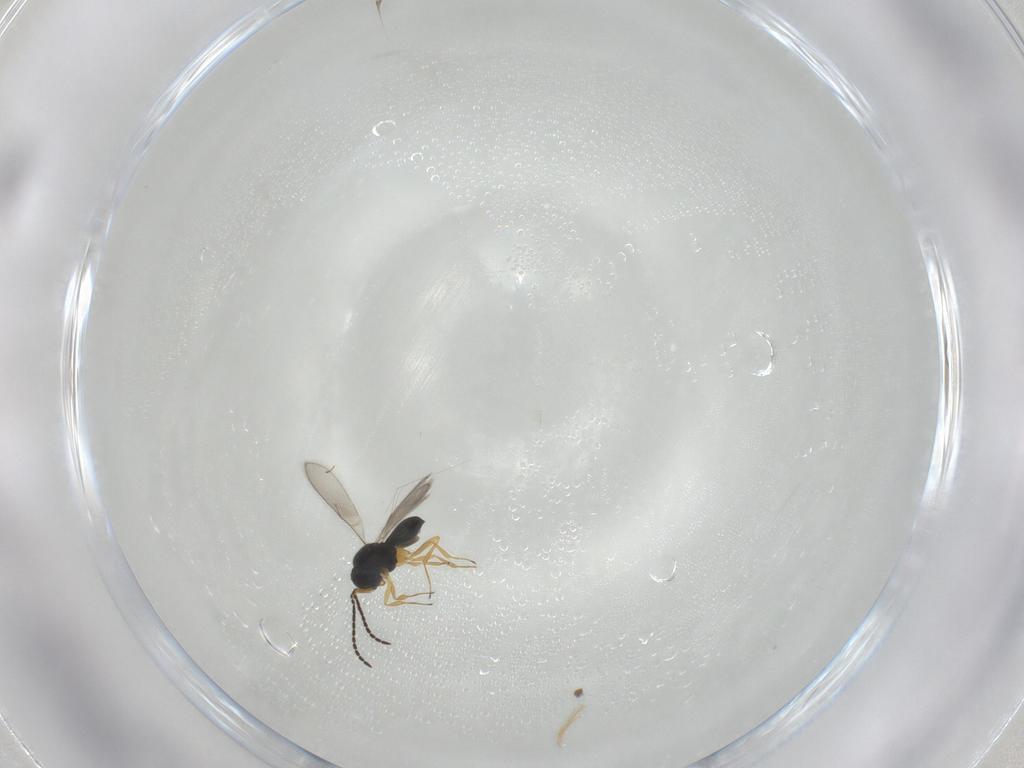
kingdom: Animalia
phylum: Arthropoda
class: Insecta
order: Hymenoptera
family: Scelionidae
